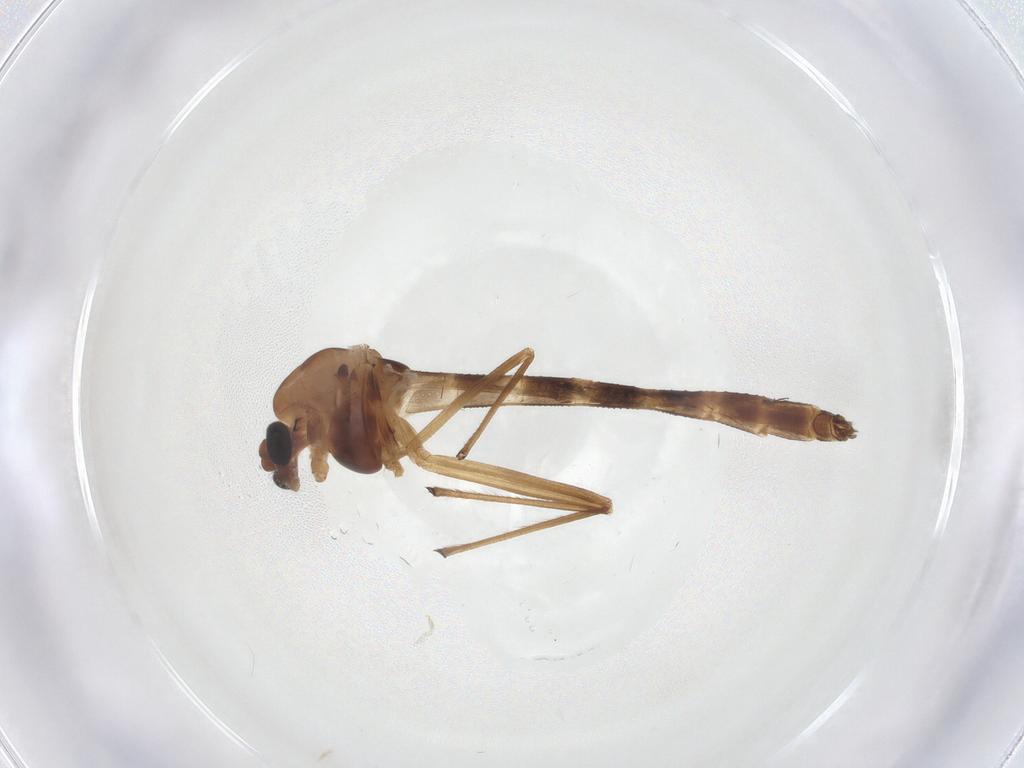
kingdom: Animalia
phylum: Arthropoda
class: Insecta
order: Diptera
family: Chironomidae
